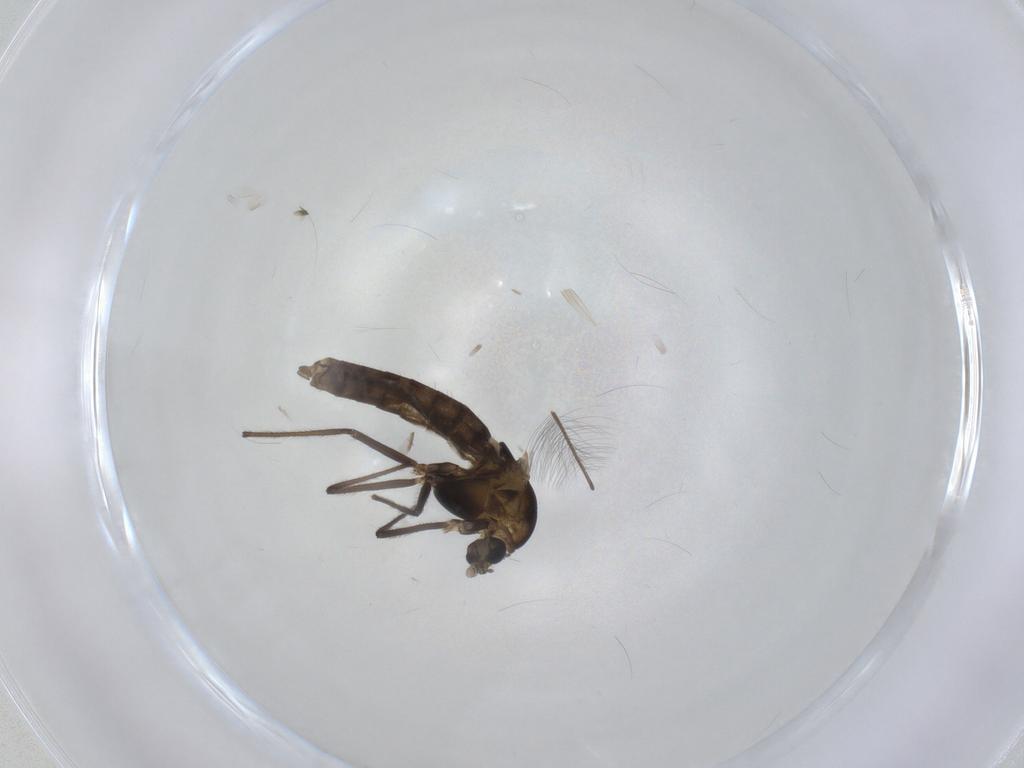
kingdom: Animalia
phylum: Arthropoda
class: Insecta
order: Diptera
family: Chironomidae
